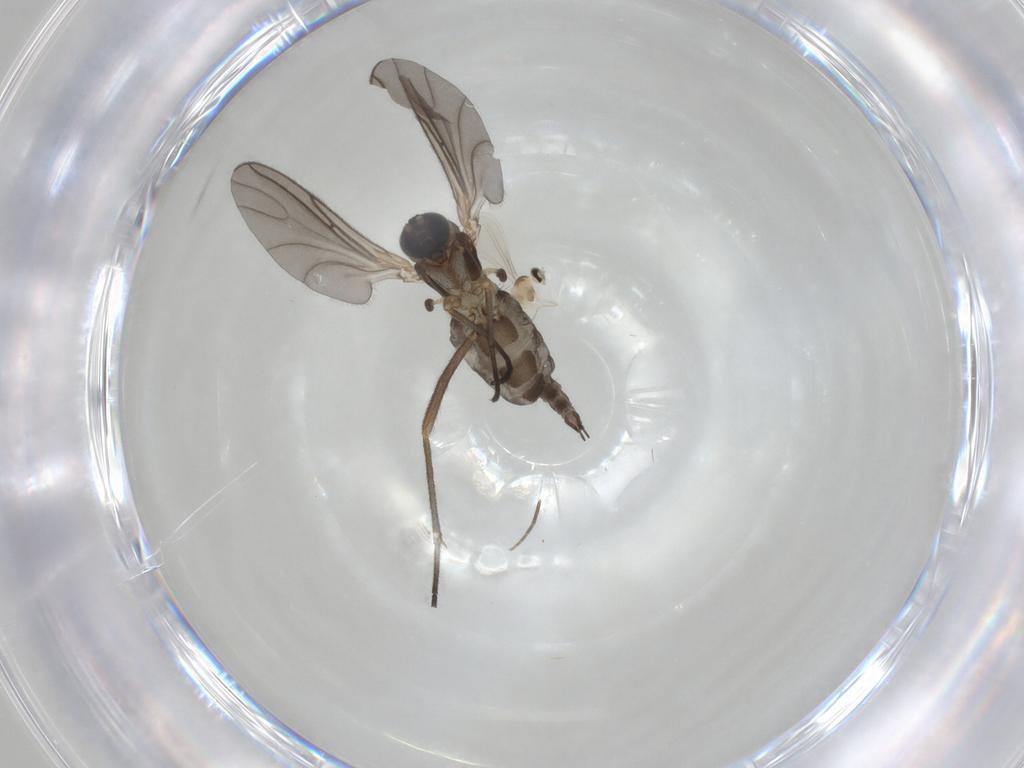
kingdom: Animalia
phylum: Arthropoda
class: Insecta
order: Diptera
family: Sciaridae
